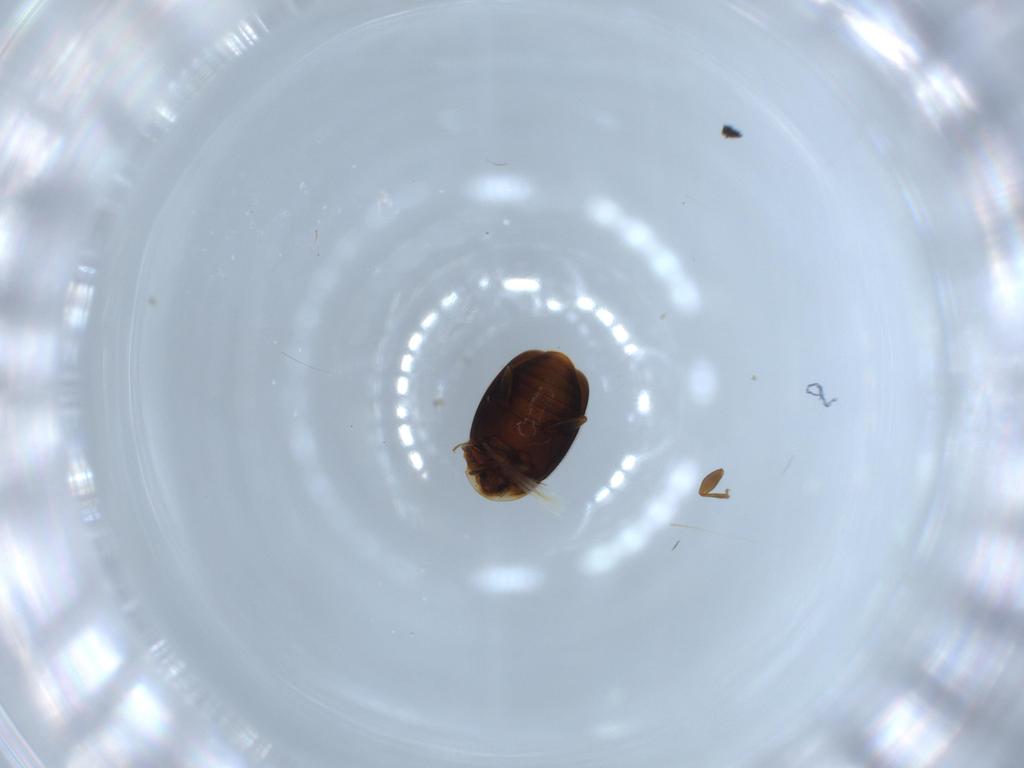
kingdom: Animalia
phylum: Arthropoda
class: Insecta
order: Coleoptera
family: Corylophidae
